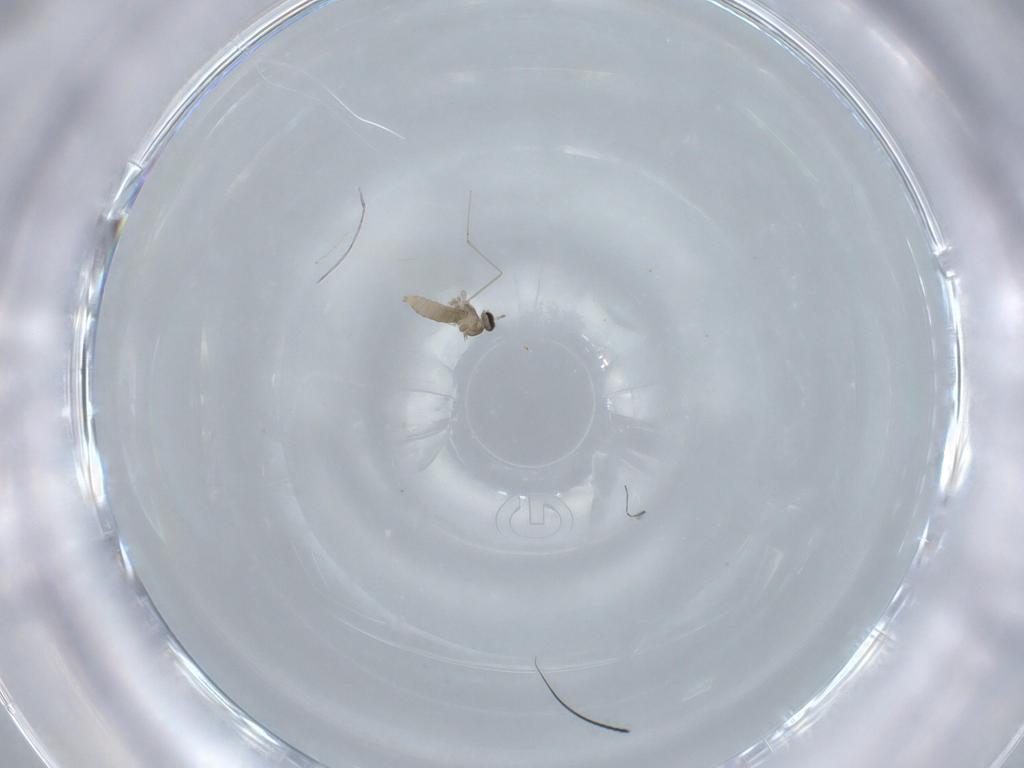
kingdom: Animalia
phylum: Arthropoda
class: Insecta
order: Diptera
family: Cecidomyiidae
